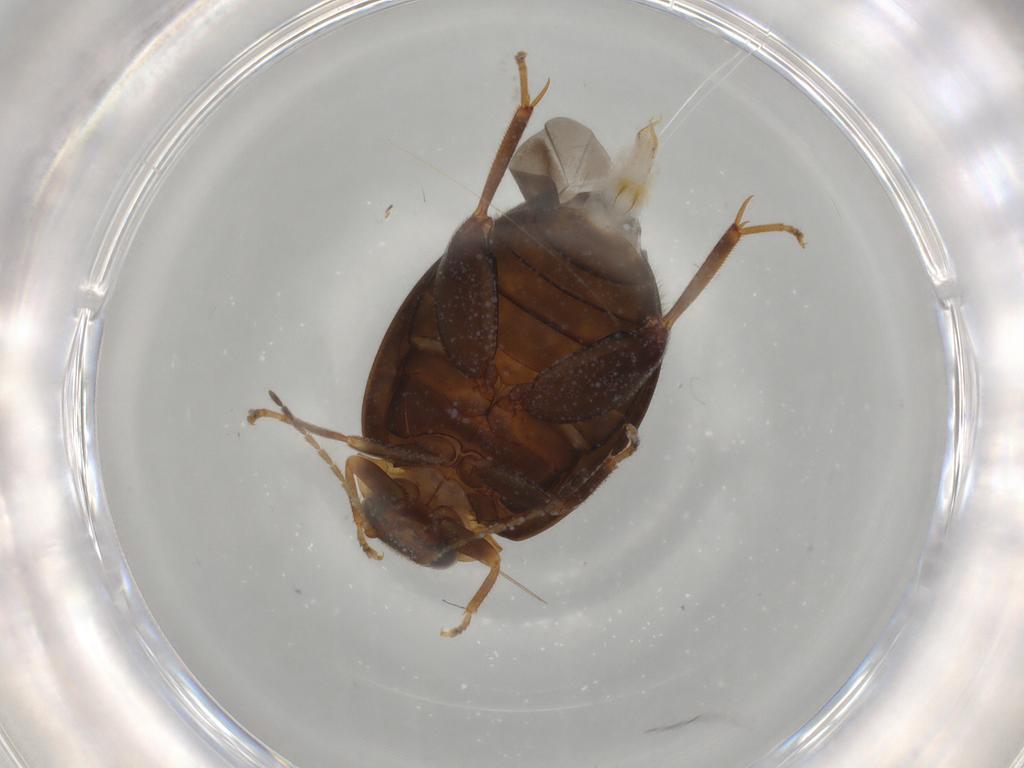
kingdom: Animalia
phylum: Arthropoda
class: Insecta
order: Coleoptera
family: Scirtidae
